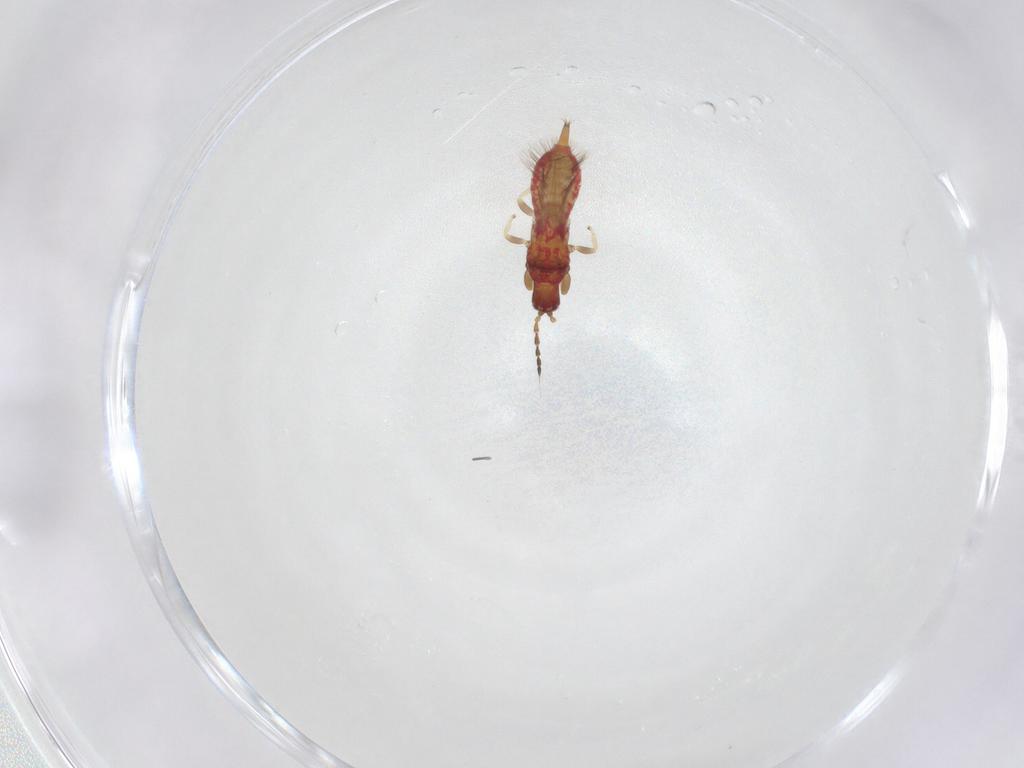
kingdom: Animalia
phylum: Arthropoda
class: Insecta
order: Thysanoptera
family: Phlaeothripidae
